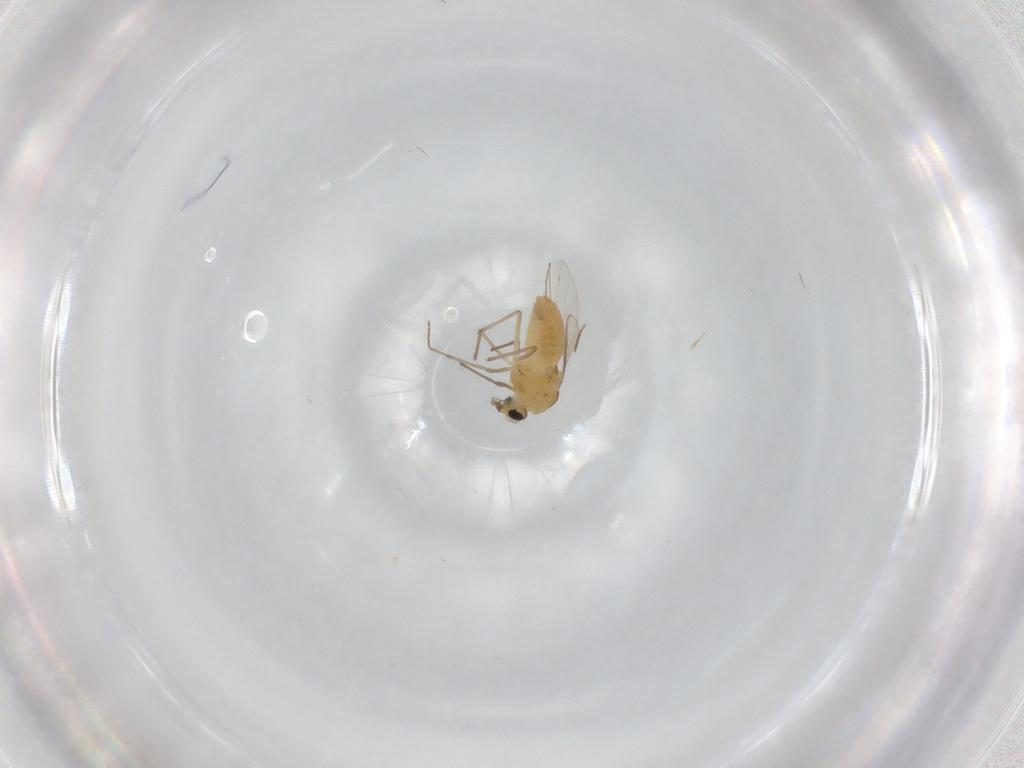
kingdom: Animalia
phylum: Arthropoda
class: Insecta
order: Diptera
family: Chironomidae
